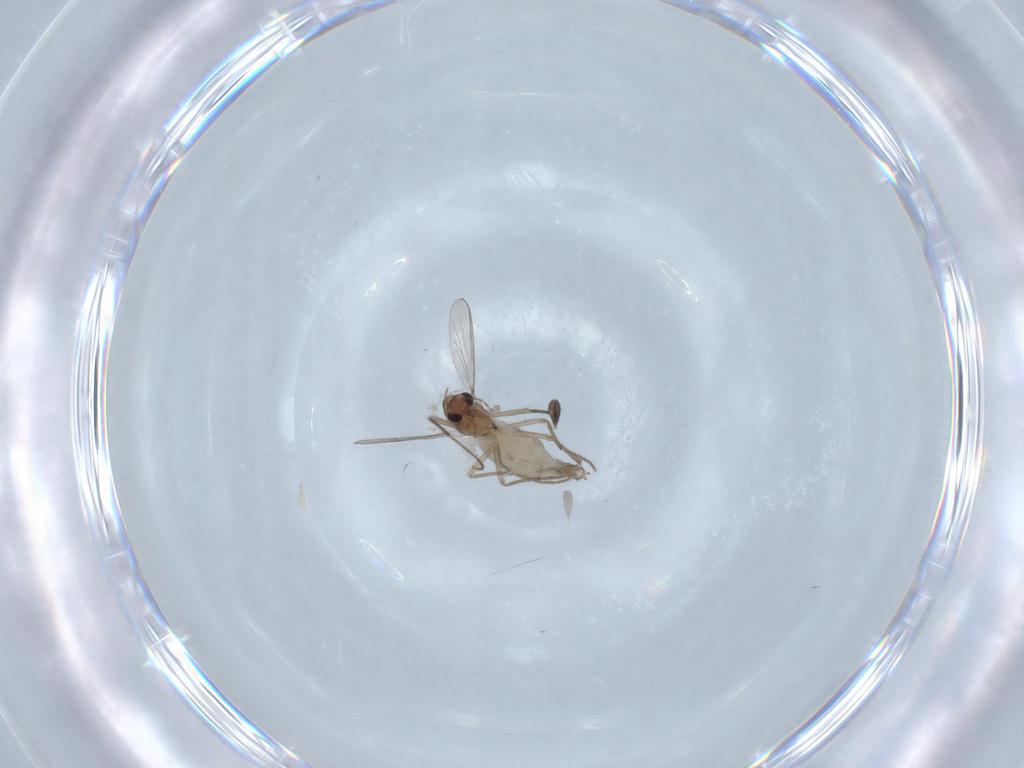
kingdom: Animalia
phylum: Arthropoda
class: Insecta
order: Diptera
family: Chironomidae
